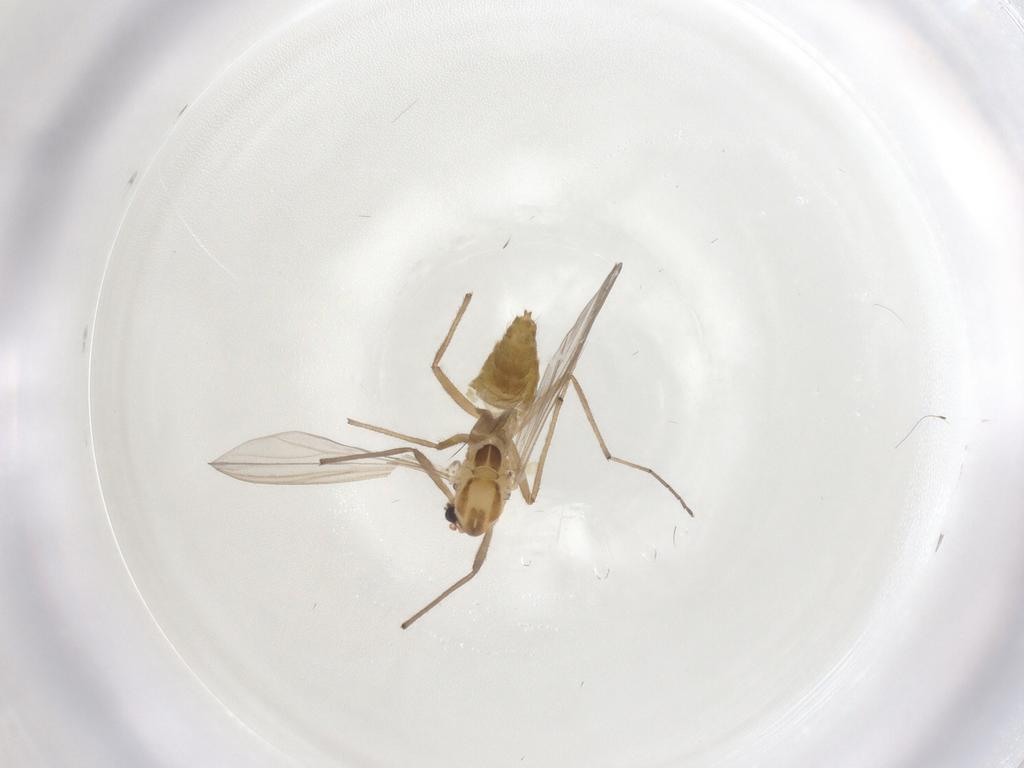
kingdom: Animalia
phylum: Arthropoda
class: Insecta
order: Diptera
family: Chironomidae
